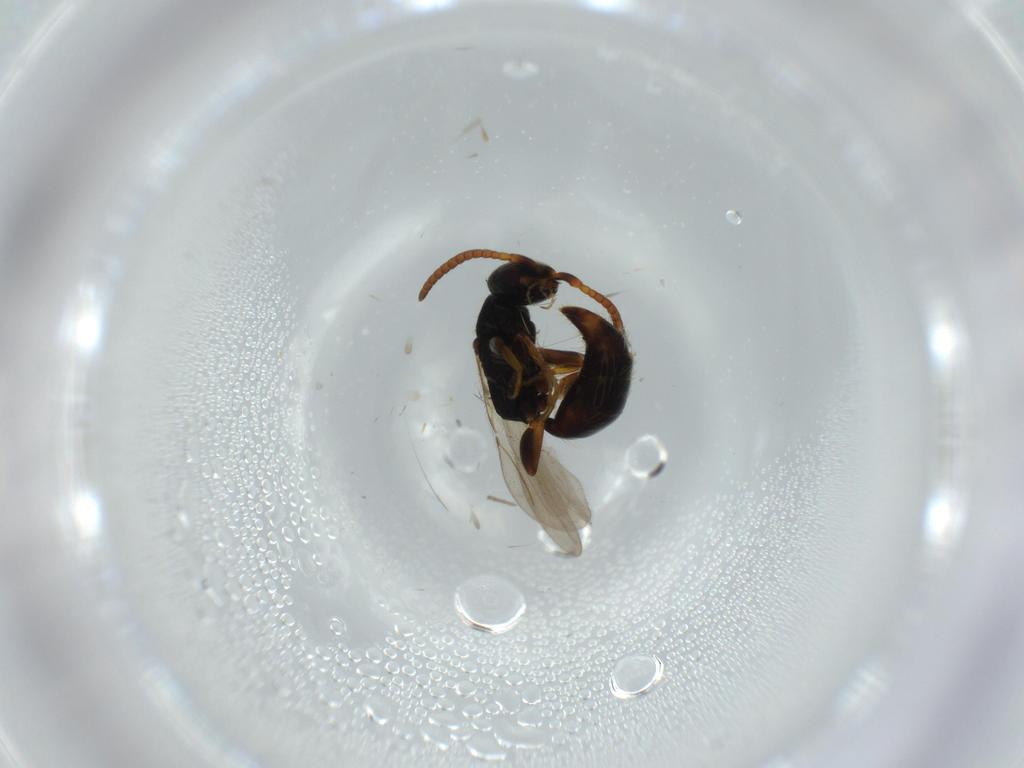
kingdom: Animalia
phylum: Arthropoda
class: Insecta
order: Hymenoptera
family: Bethylidae
